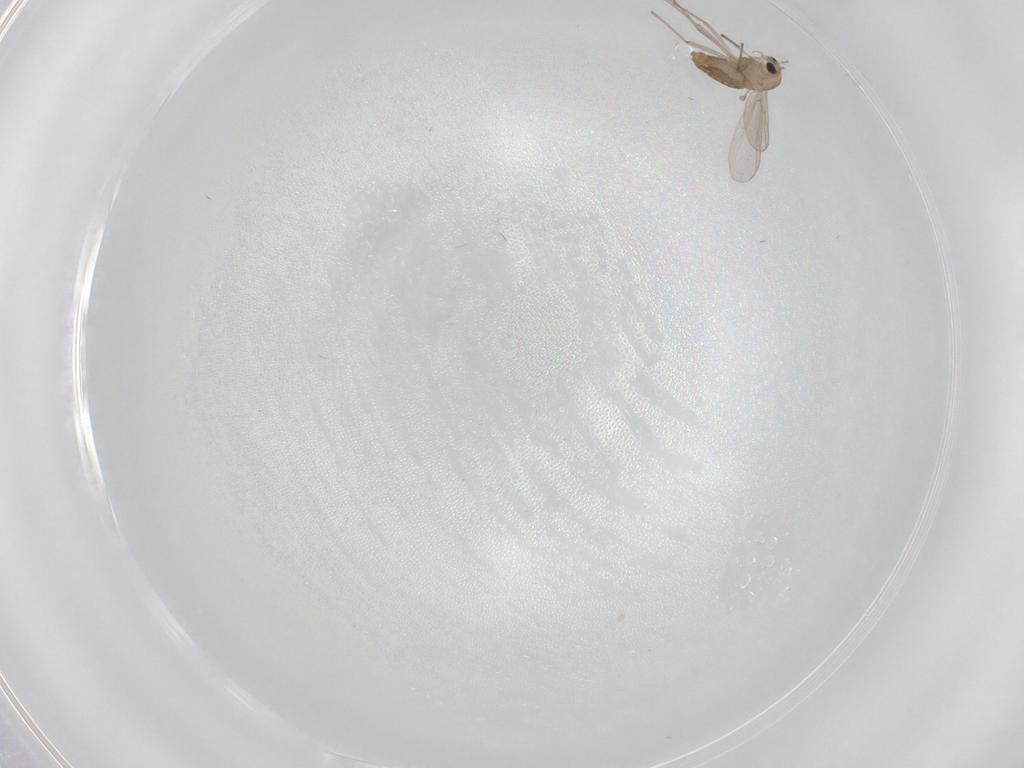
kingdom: Animalia
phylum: Arthropoda
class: Insecta
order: Diptera
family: Chironomidae
